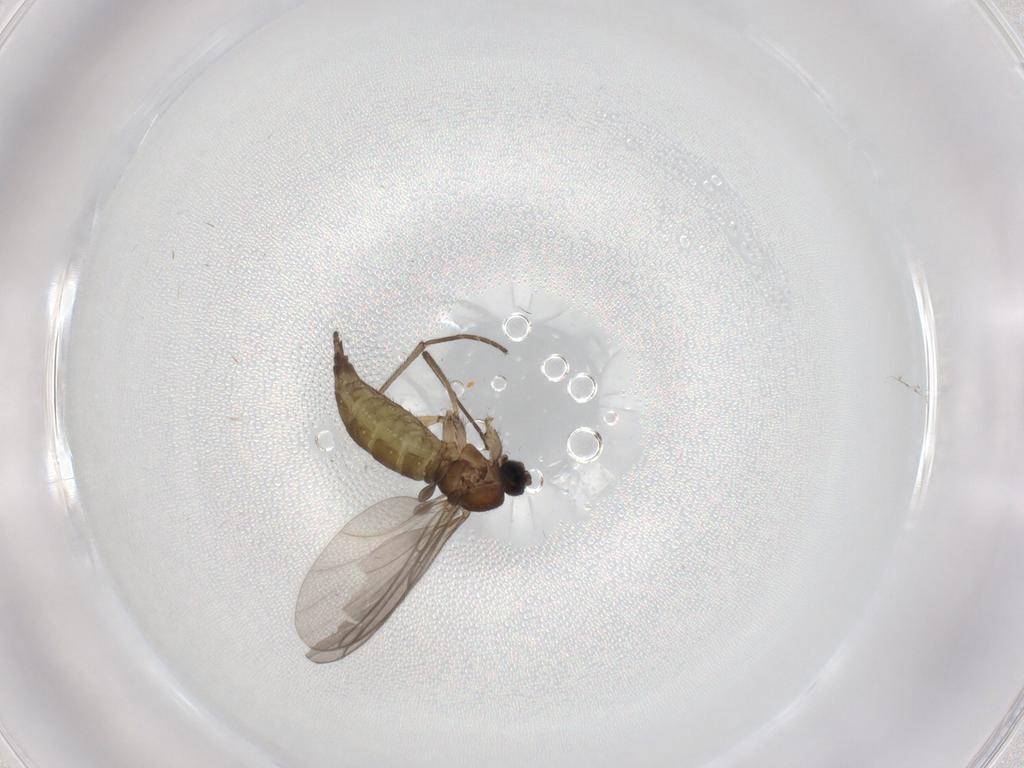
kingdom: Animalia
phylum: Arthropoda
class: Insecta
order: Diptera
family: Sciaridae
